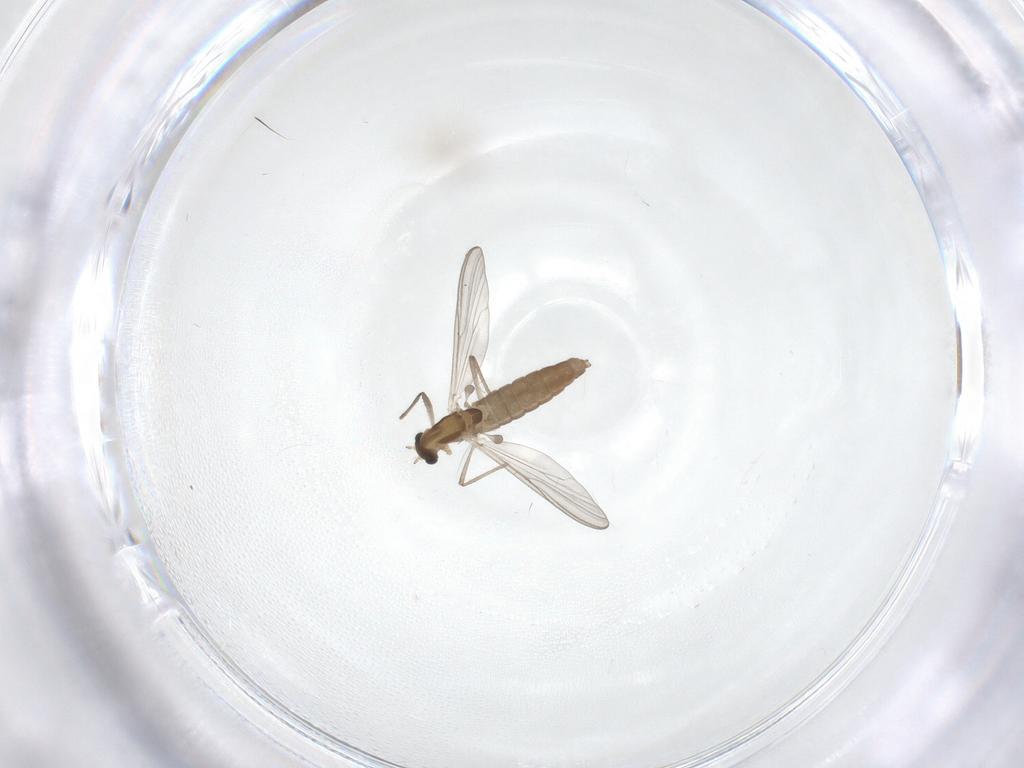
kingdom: Animalia
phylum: Arthropoda
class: Insecta
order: Diptera
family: Chironomidae
